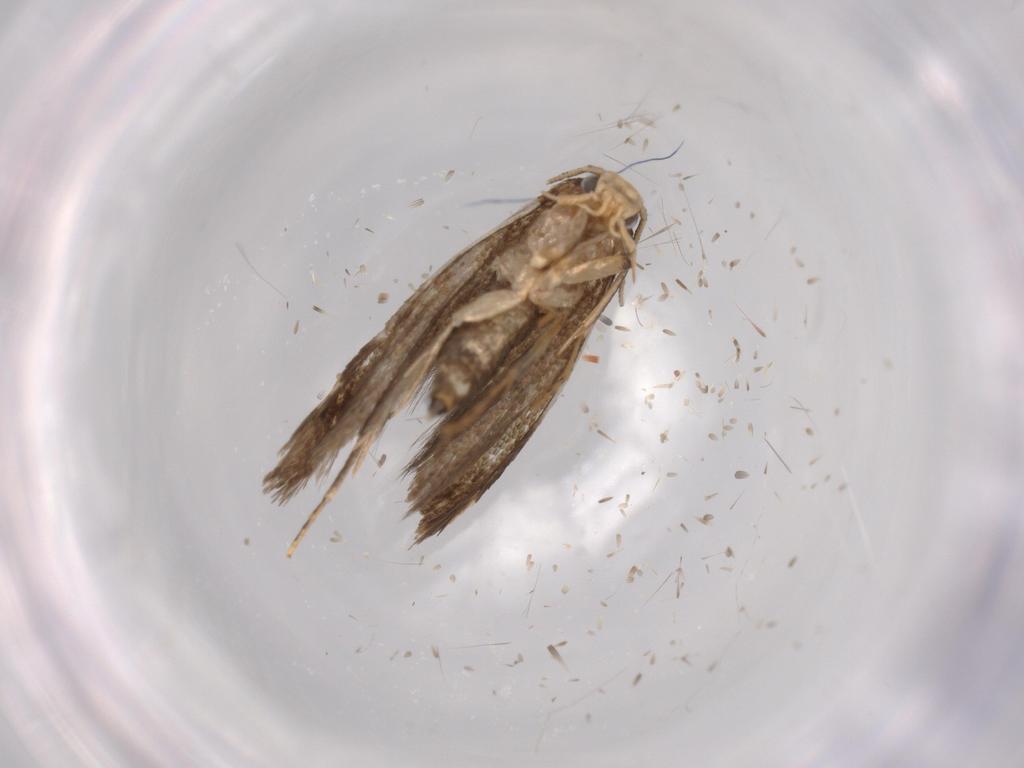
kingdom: Animalia
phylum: Arthropoda
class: Insecta
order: Lepidoptera
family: Tineidae
